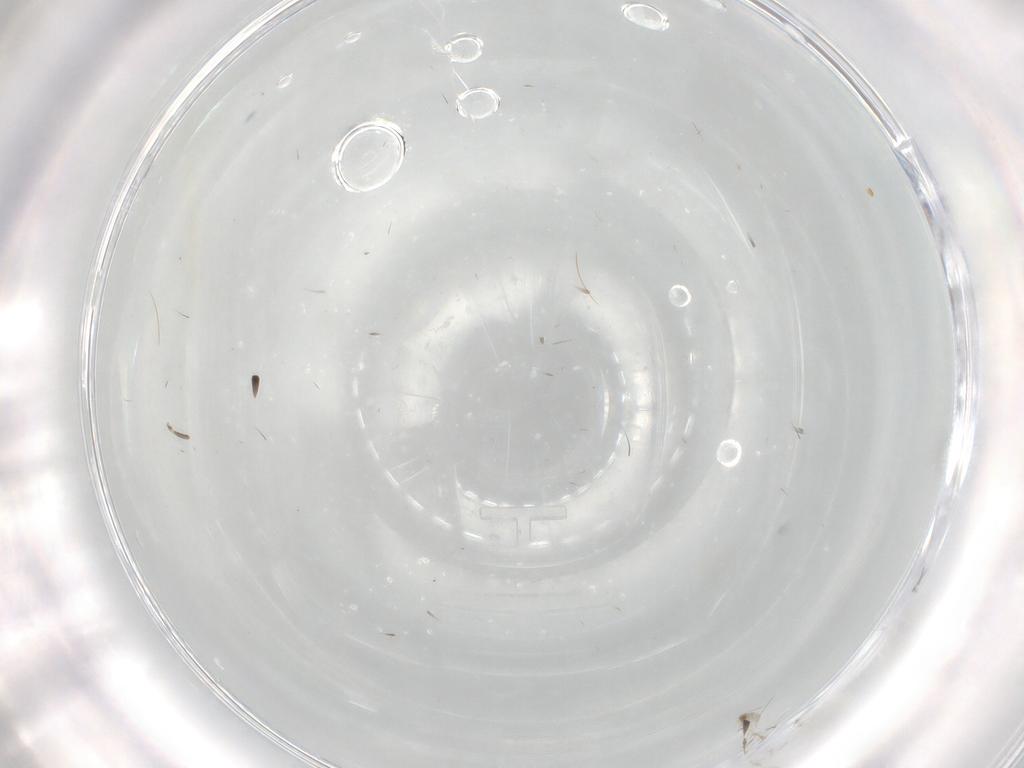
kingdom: Animalia
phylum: Arthropoda
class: Insecta
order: Diptera
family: Chironomidae
